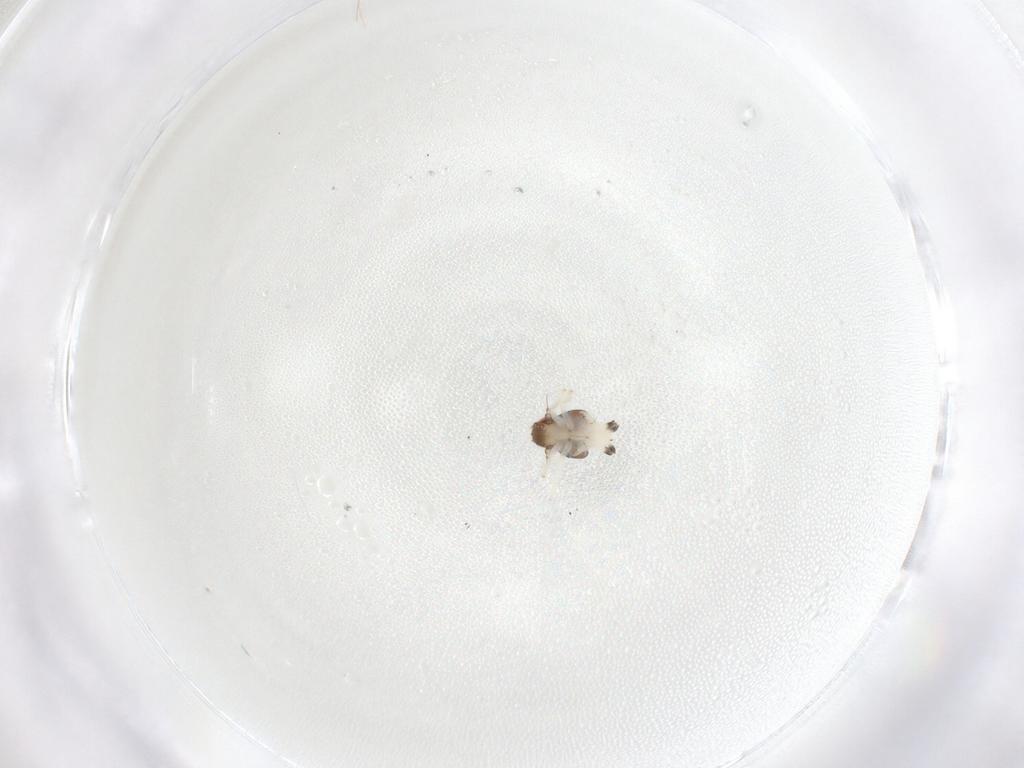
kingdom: Animalia
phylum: Arthropoda
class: Insecta
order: Hemiptera
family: Nogodinidae
